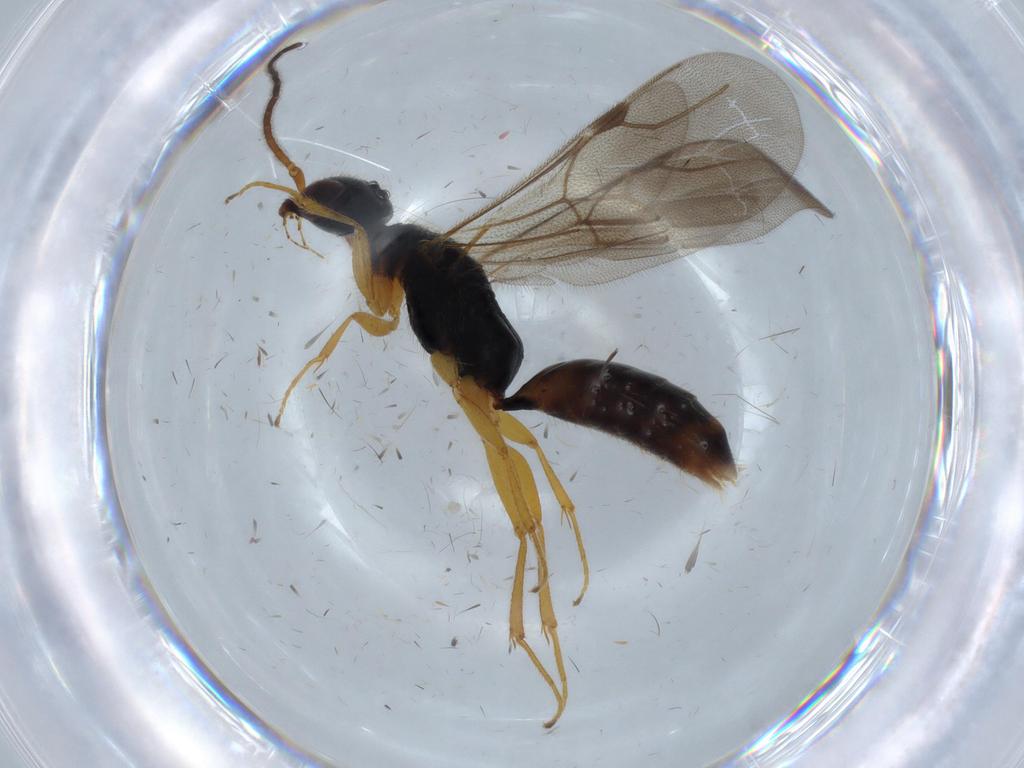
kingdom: Animalia
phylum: Arthropoda
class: Insecta
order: Hymenoptera
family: Bethylidae
